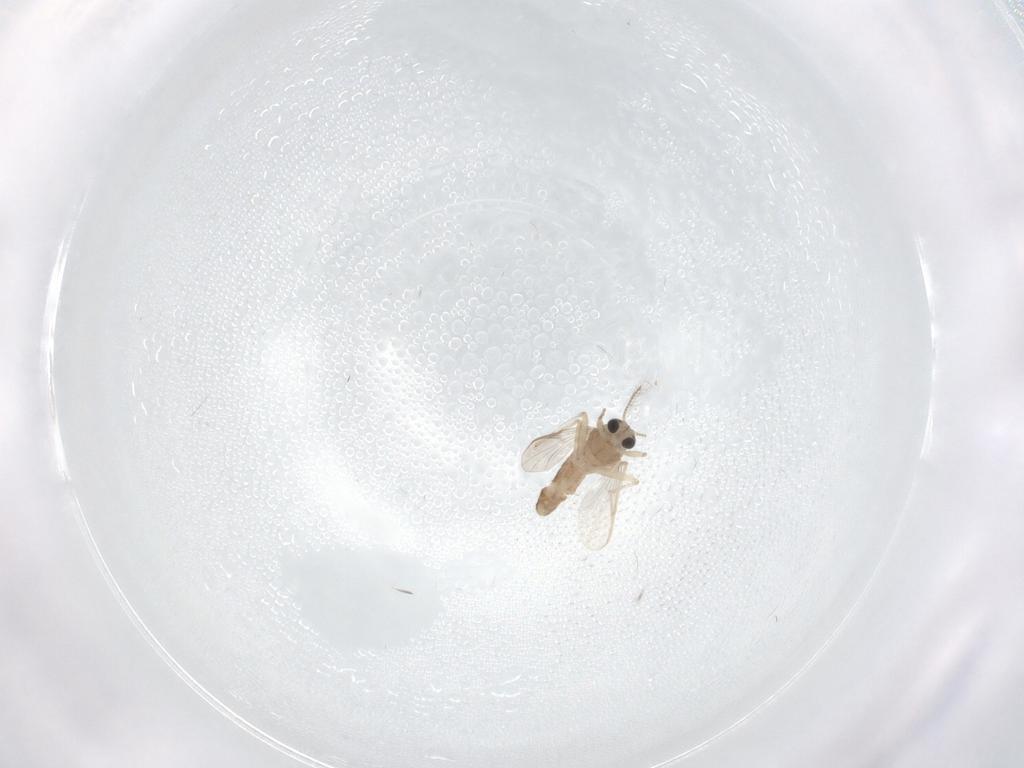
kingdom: Animalia
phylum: Arthropoda
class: Insecta
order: Diptera
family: Chironomidae
